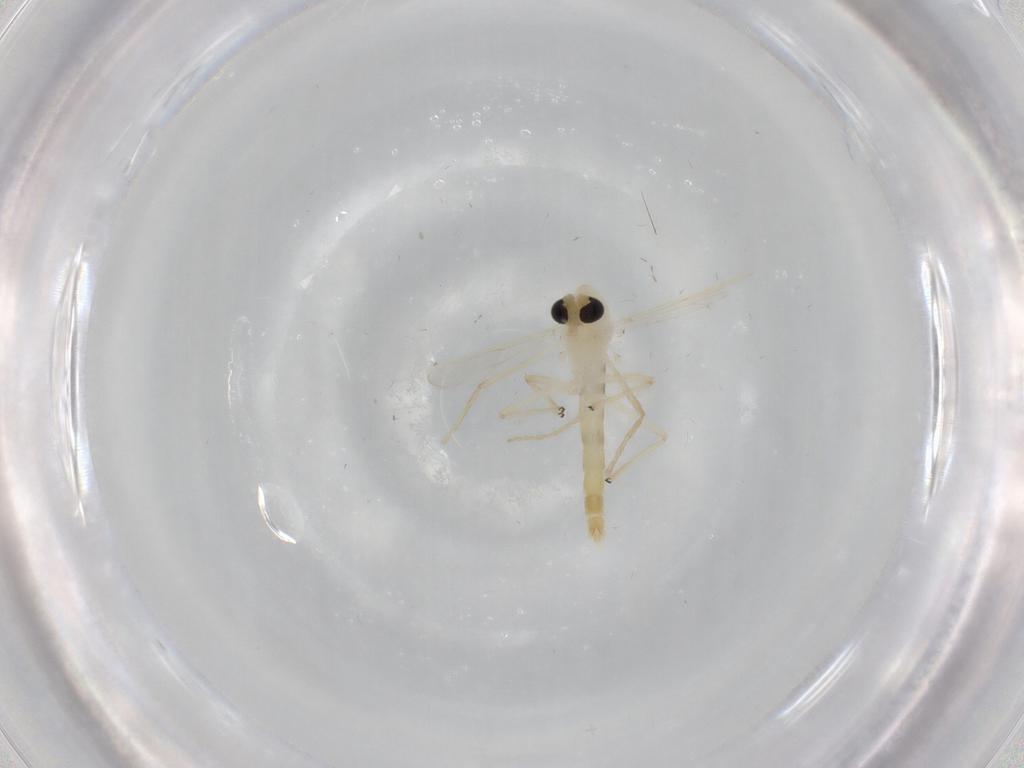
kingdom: Animalia
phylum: Arthropoda
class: Insecta
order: Diptera
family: Chironomidae
